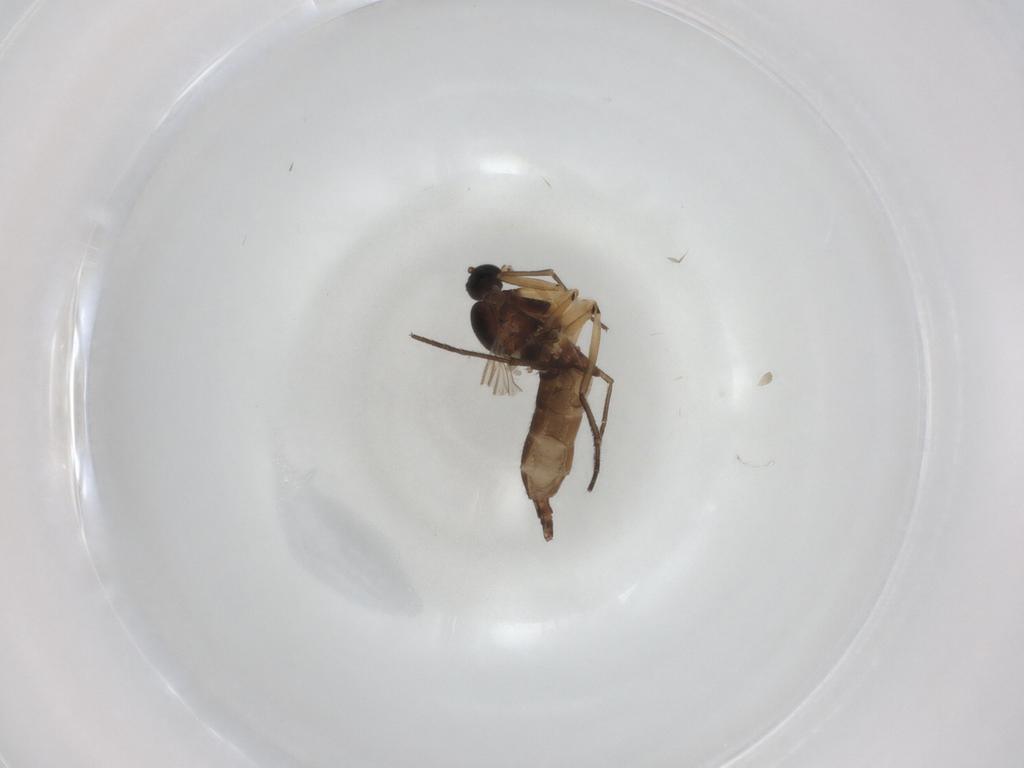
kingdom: Animalia
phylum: Arthropoda
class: Insecta
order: Diptera
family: Sciaridae
